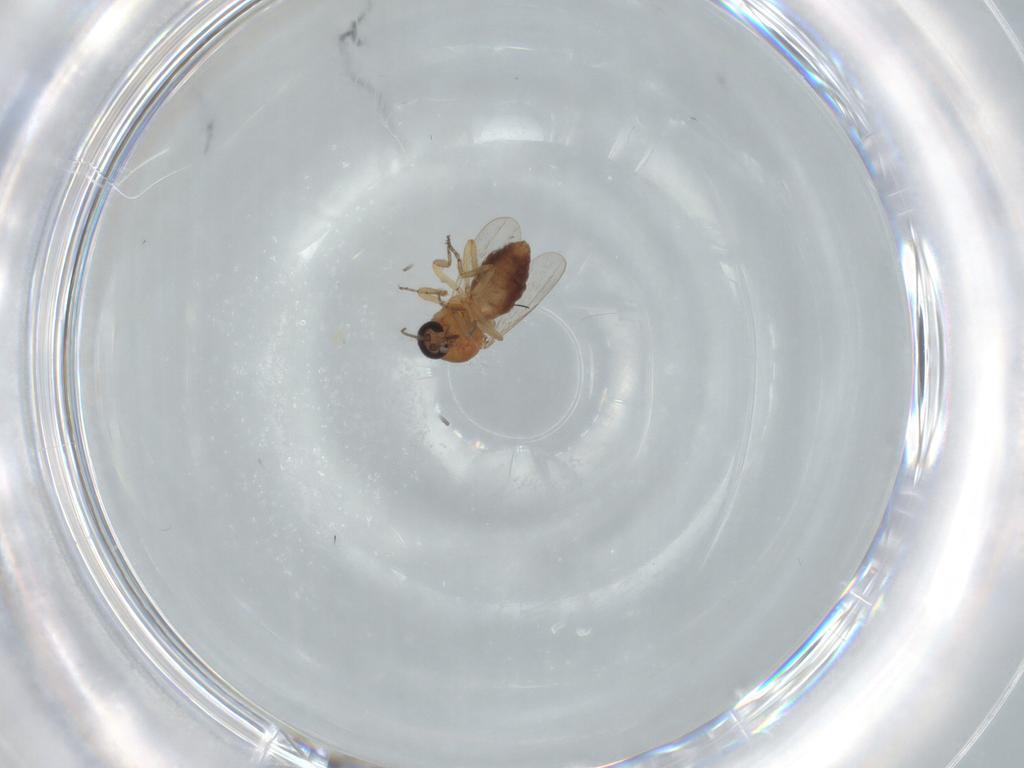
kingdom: Animalia
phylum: Arthropoda
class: Insecta
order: Diptera
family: Ceratopogonidae
